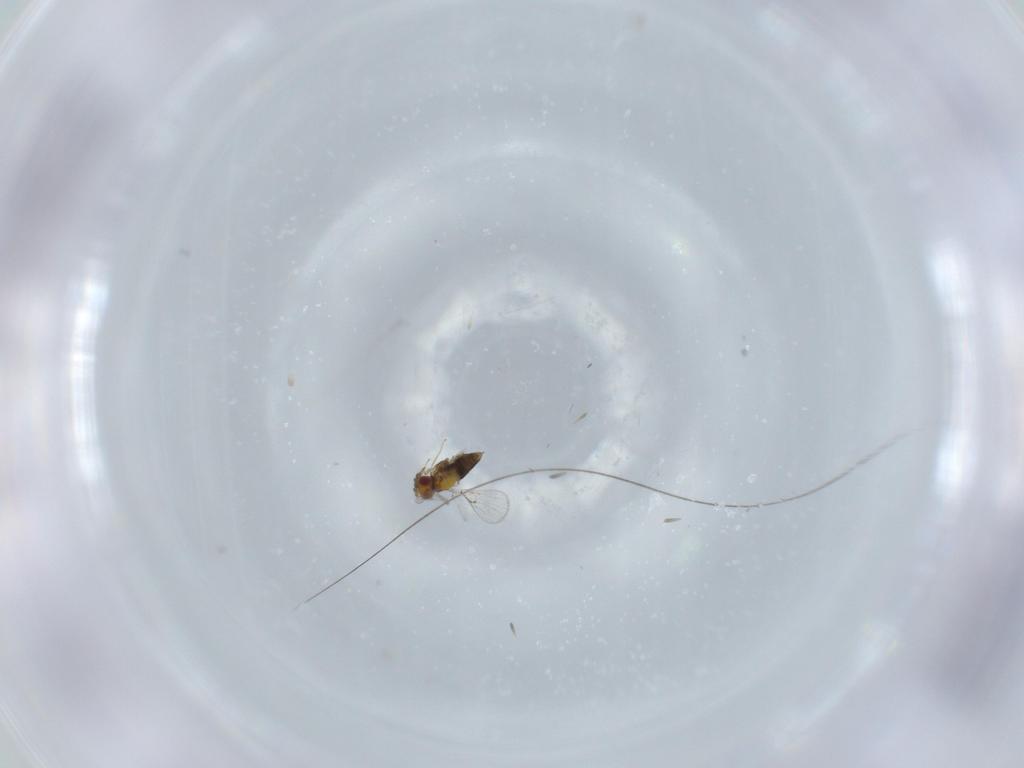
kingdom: Animalia
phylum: Arthropoda
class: Insecta
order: Hymenoptera
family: Trichogrammatidae
